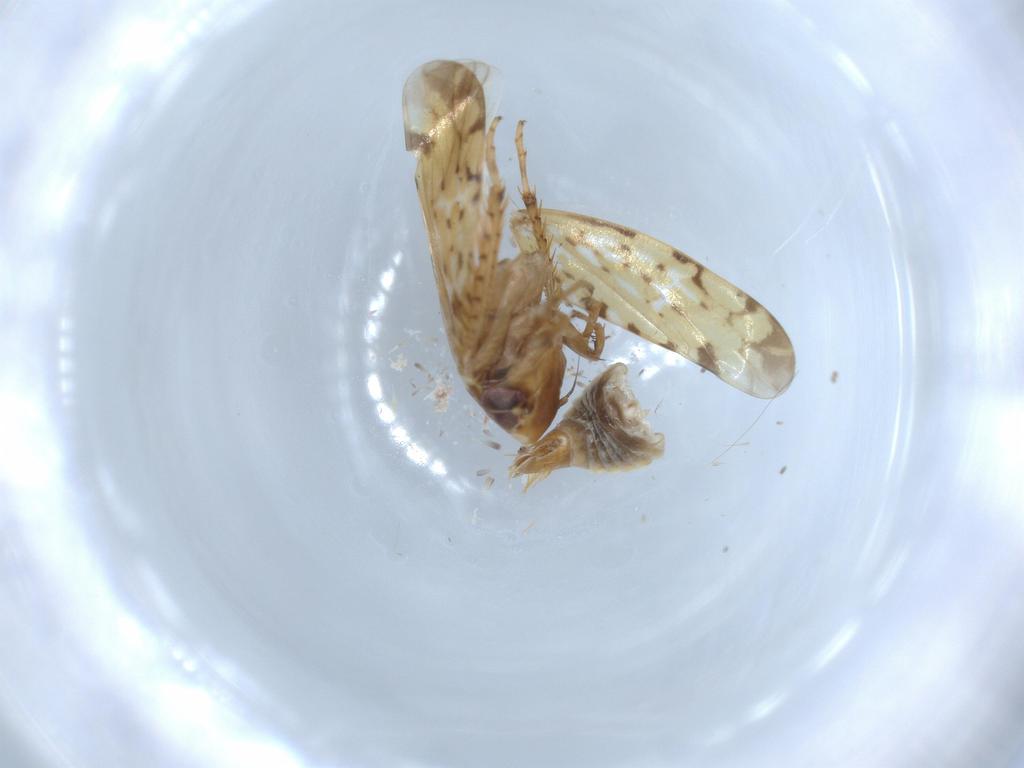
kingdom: Animalia
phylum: Arthropoda
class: Insecta
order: Hemiptera
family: Cicadellidae
